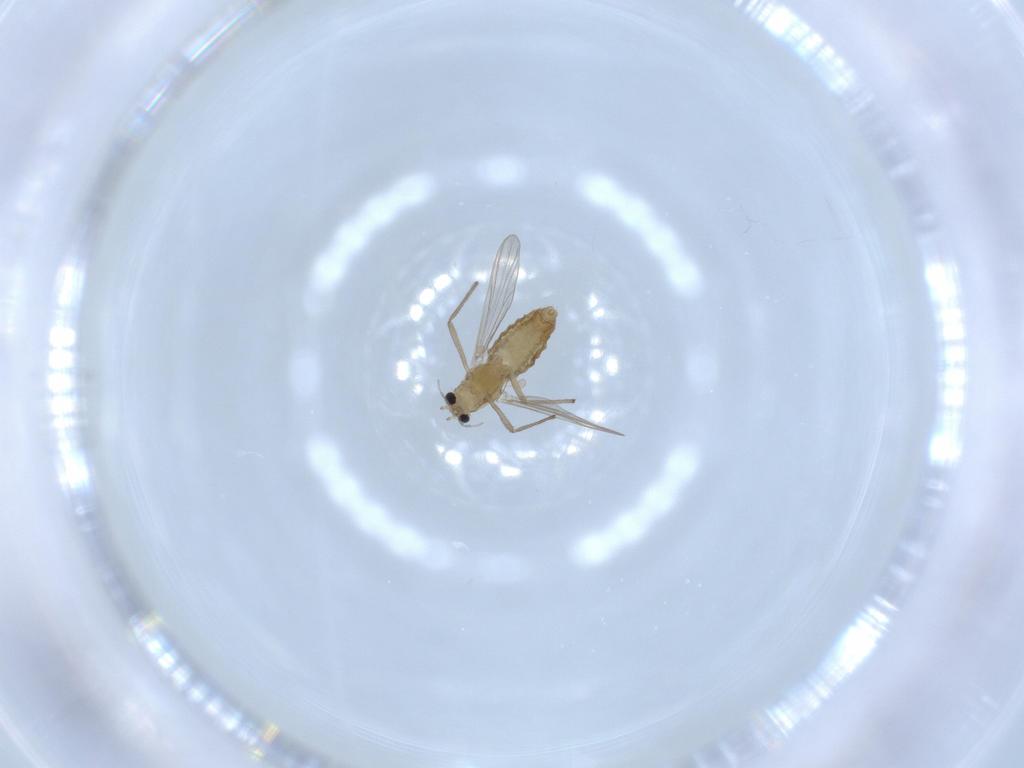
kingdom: Animalia
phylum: Arthropoda
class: Insecta
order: Diptera
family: Chironomidae
